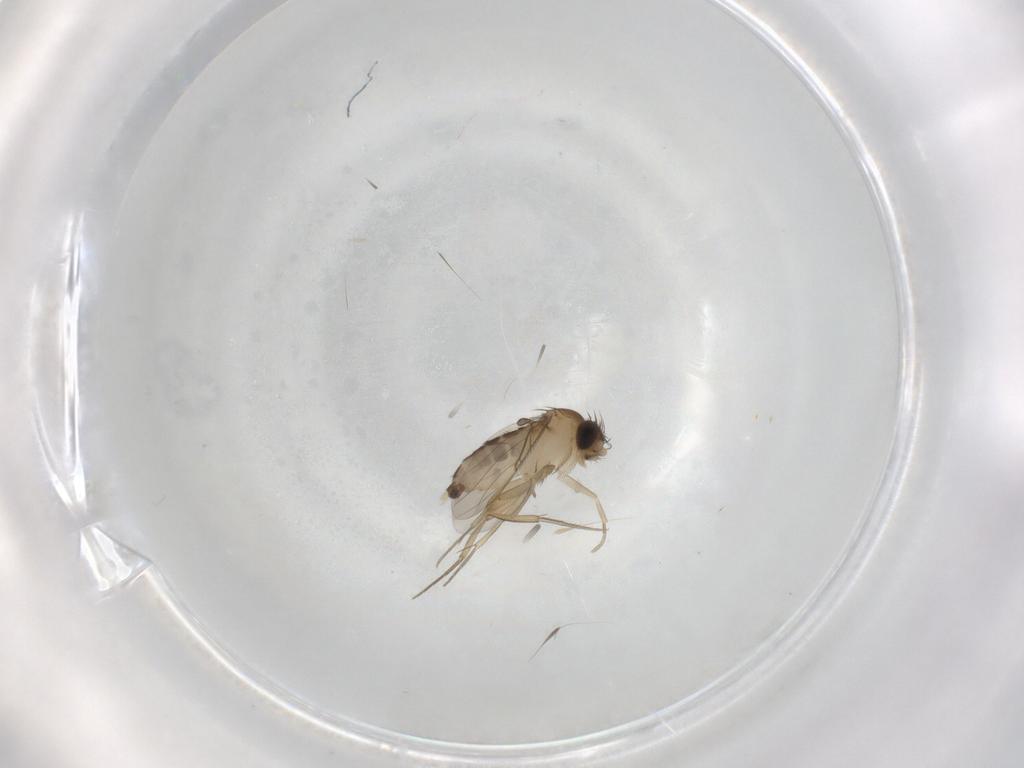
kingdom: Animalia
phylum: Arthropoda
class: Insecta
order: Diptera
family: Phoridae
